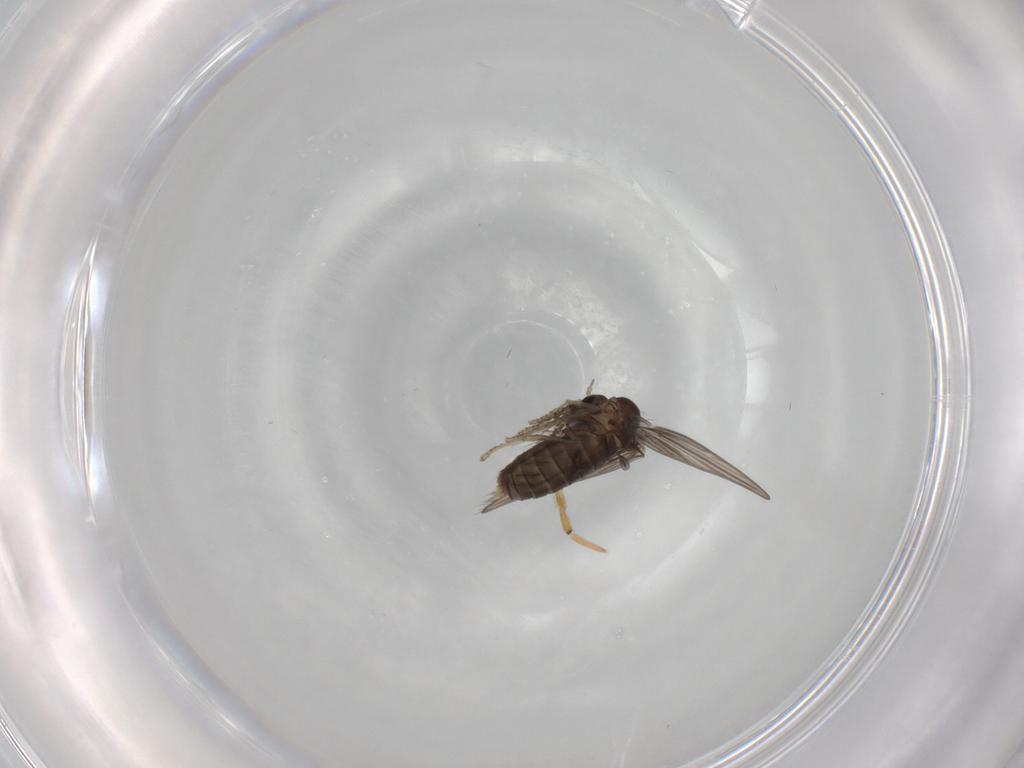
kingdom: Animalia
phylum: Arthropoda
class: Insecta
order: Diptera
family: Psychodidae
